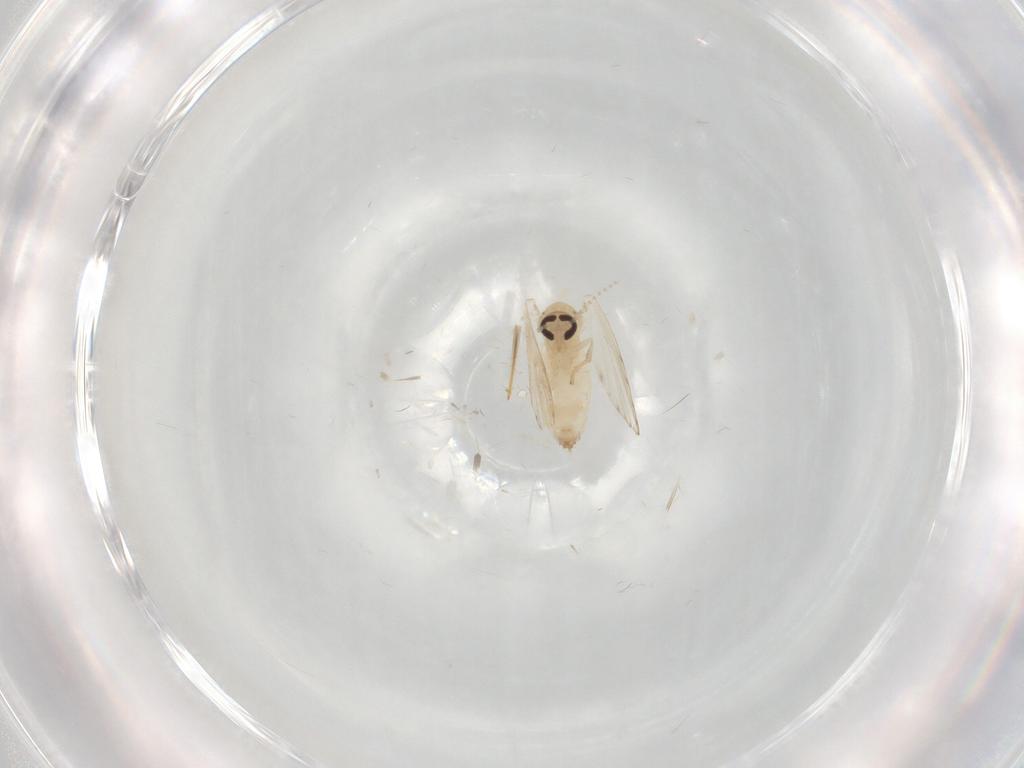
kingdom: Animalia
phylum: Arthropoda
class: Insecta
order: Diptera
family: Psychodidae
